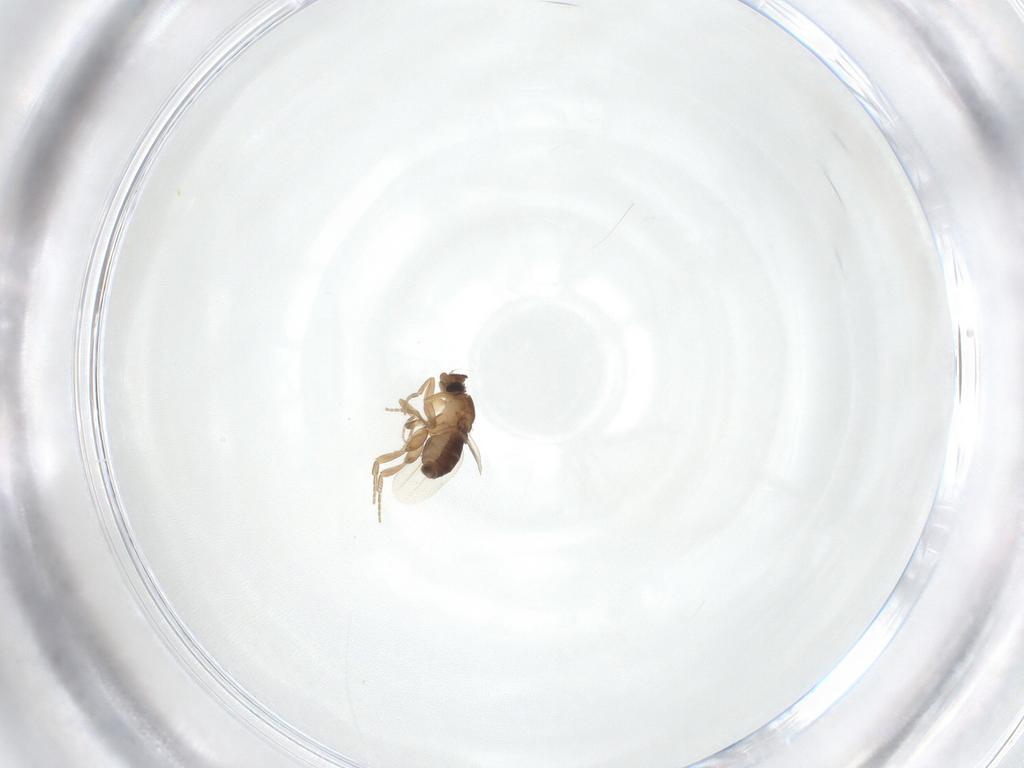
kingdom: Animalia
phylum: Arthropoda
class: Insecta
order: Diptera
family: Phoridae
